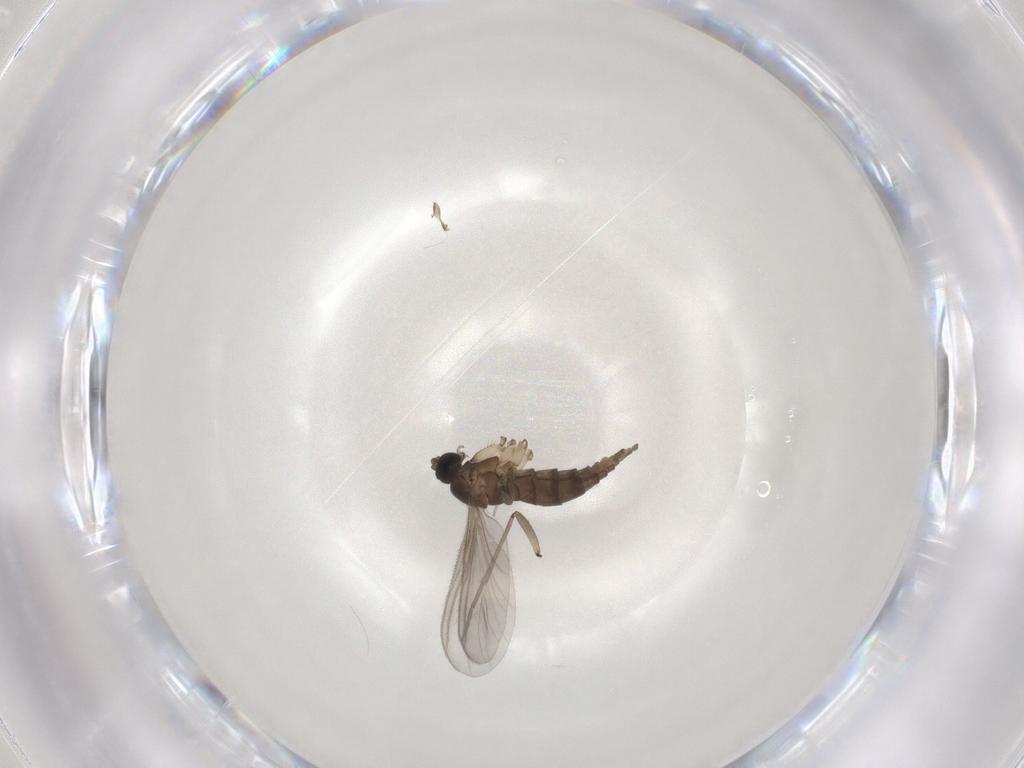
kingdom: Animalia
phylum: Arthropoda
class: Insecta
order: Diptera
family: Sciaridae
